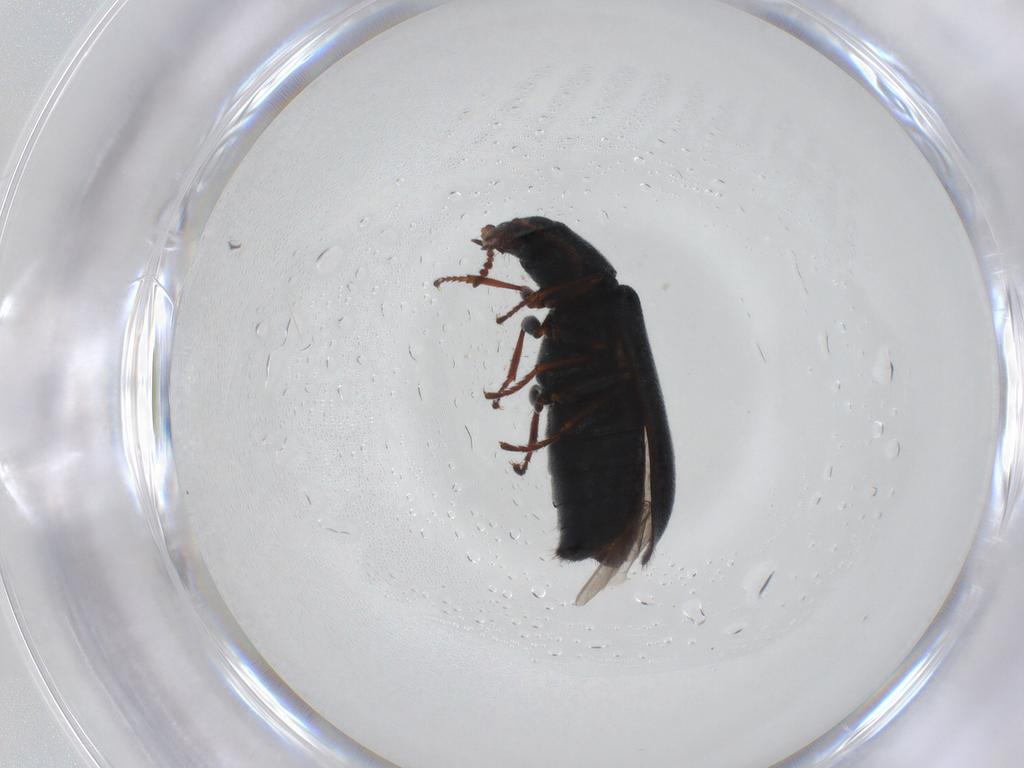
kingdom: Animalia
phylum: Arthropoda
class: Insecta
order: Coleoptera
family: Melyridae
